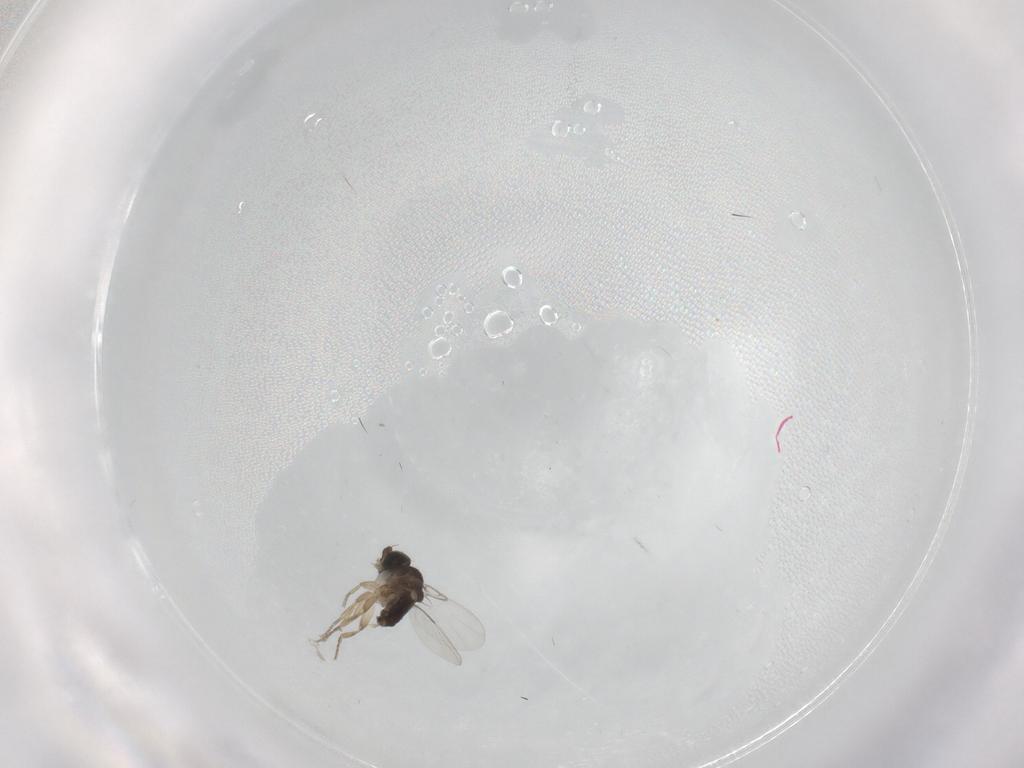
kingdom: Animalia
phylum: Arthropoda
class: Insecta
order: Diptera
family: Phoridae
